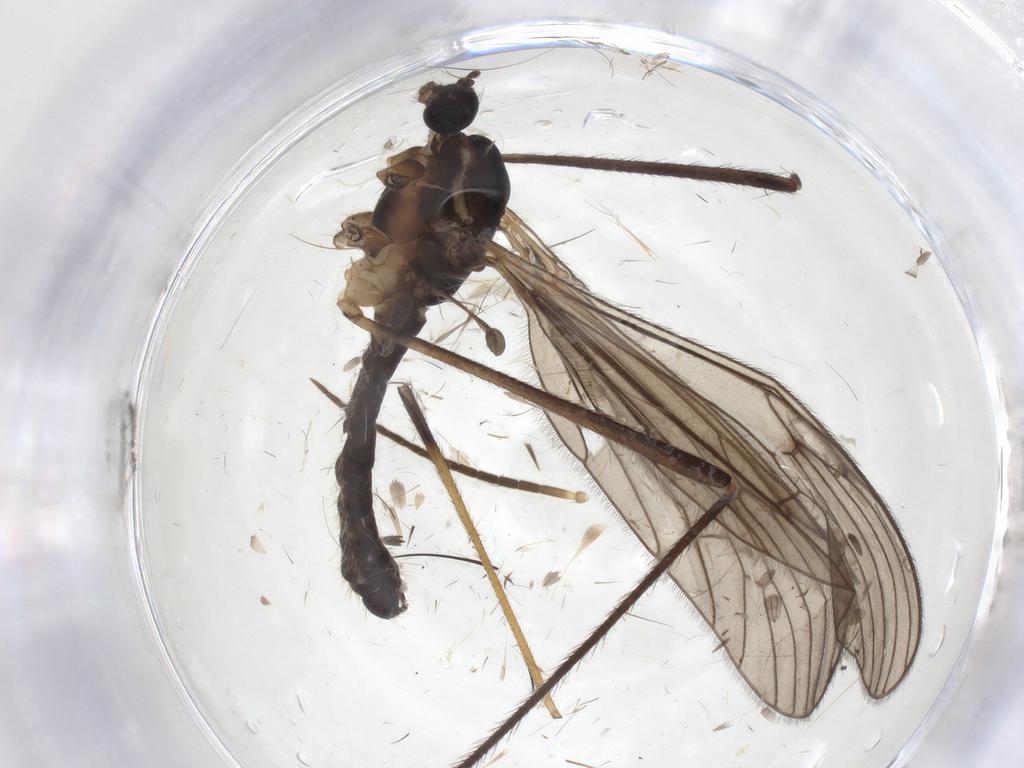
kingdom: Animalia
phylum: Arthropoda
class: Insecta
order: Diptera
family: Limoniidae
